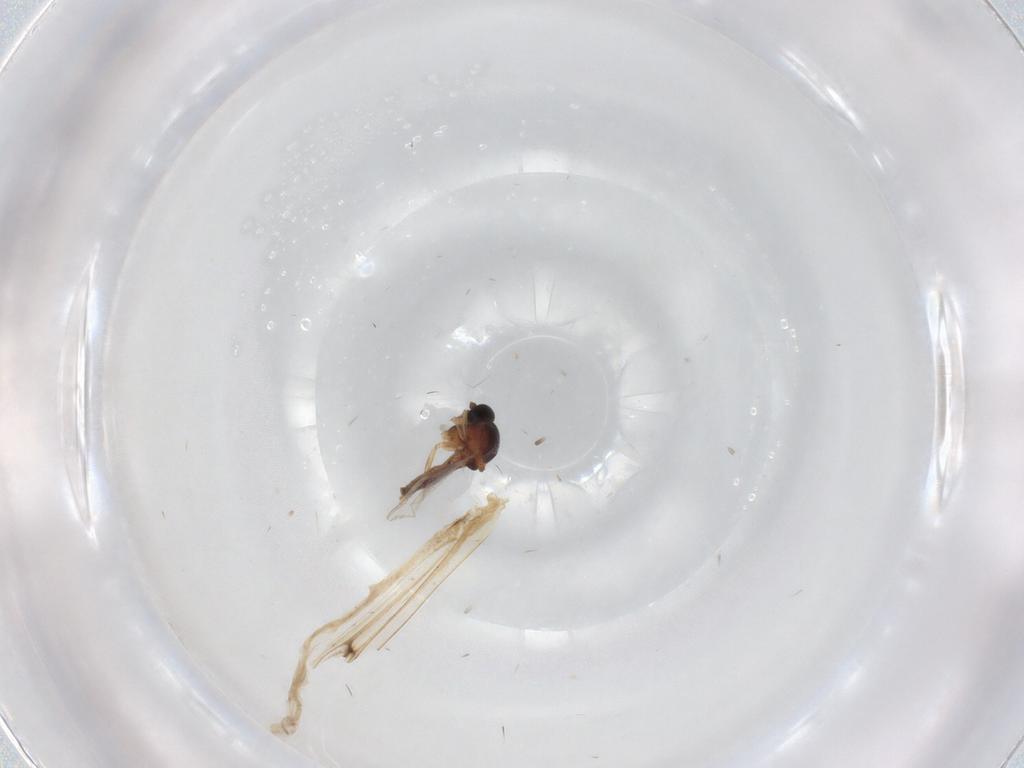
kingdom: Animalia
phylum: Arthropoda
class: Insecta
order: Diptera
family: Ceratopogonidae
